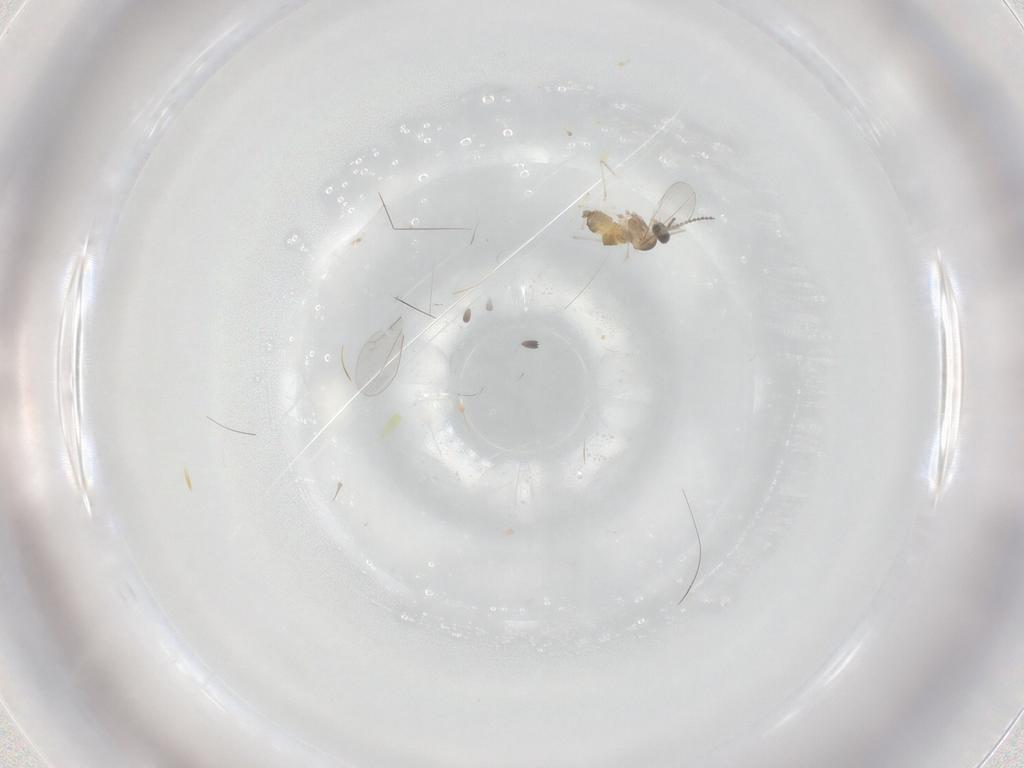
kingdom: Animalia
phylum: Arthropoda
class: Insecta
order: Diptera
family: Cecidomyiidae
